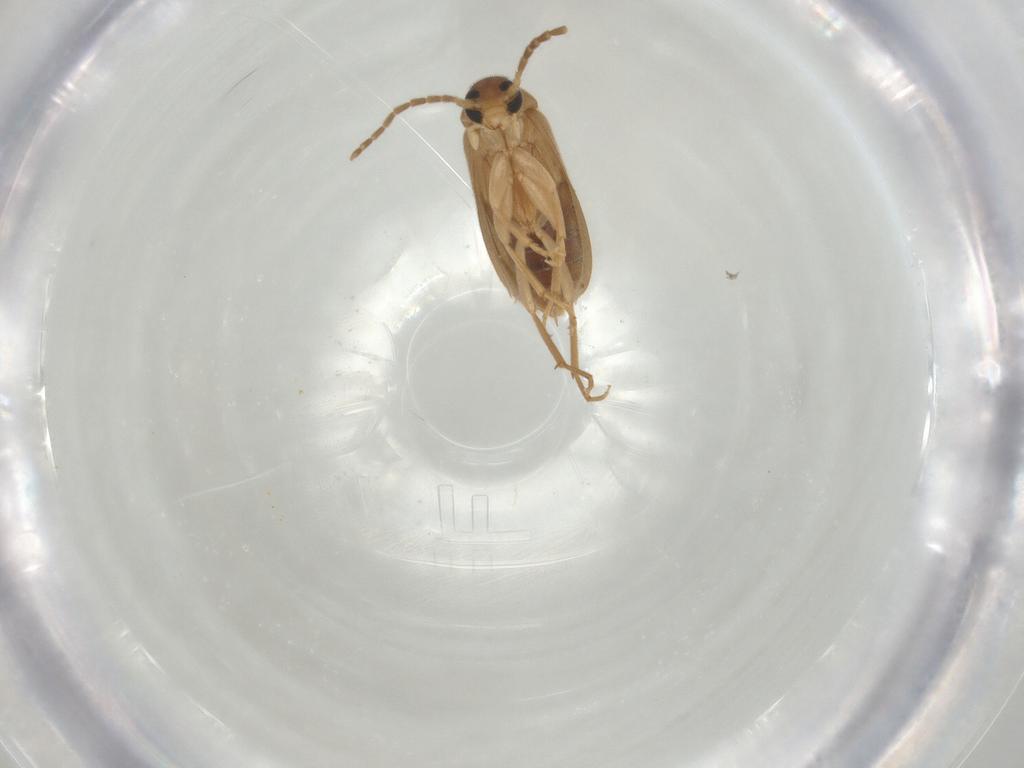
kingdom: Animalia
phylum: Arthropoda
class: Insecta
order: Coleoptera
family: Scraptiidae
